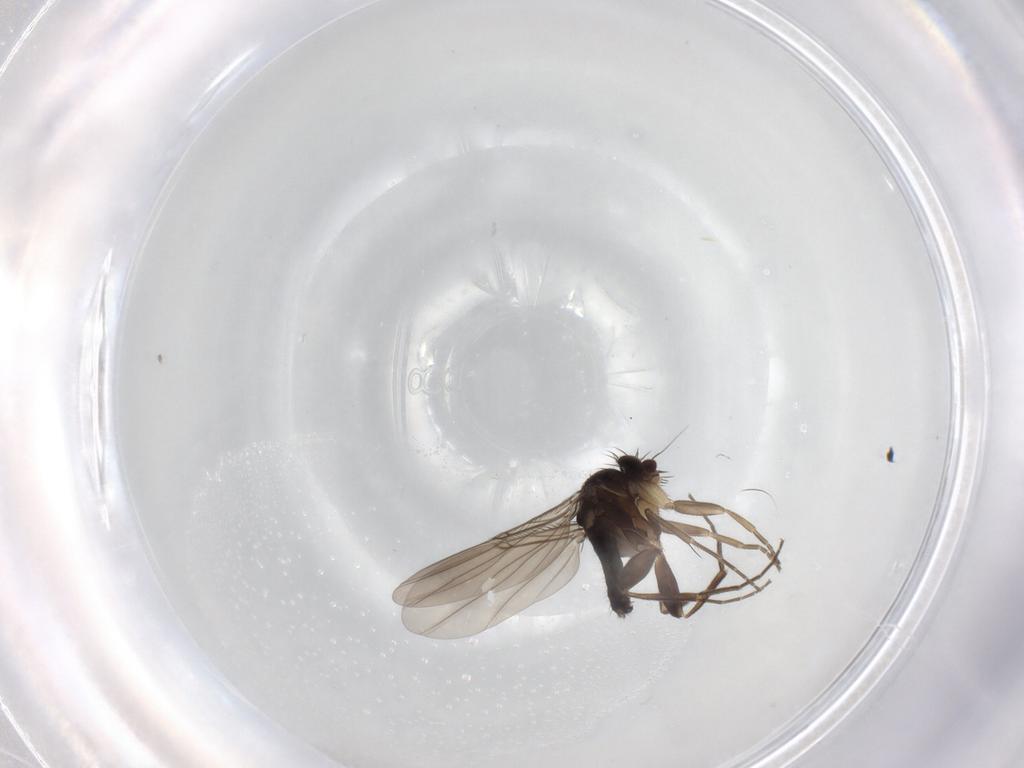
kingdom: Animalia
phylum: Arthropoda
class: Insecta
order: Diptera
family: Phoridae
